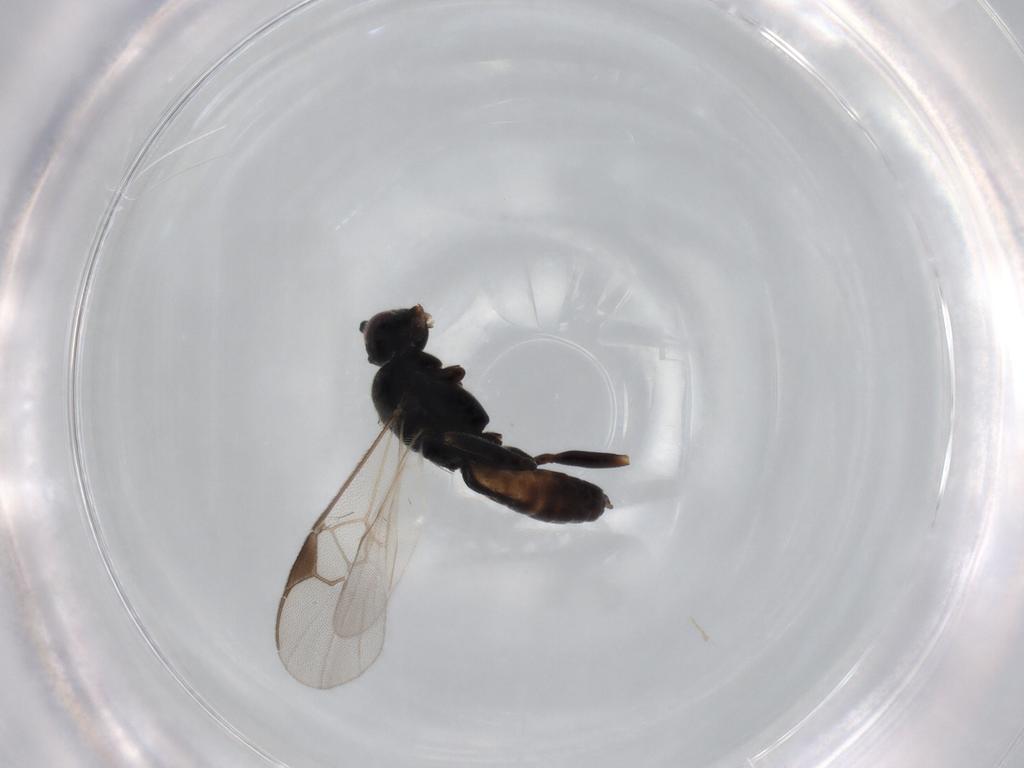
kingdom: Animalia
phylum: Arthropoda
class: Insecta
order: Hymenoptera
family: Braconidae
